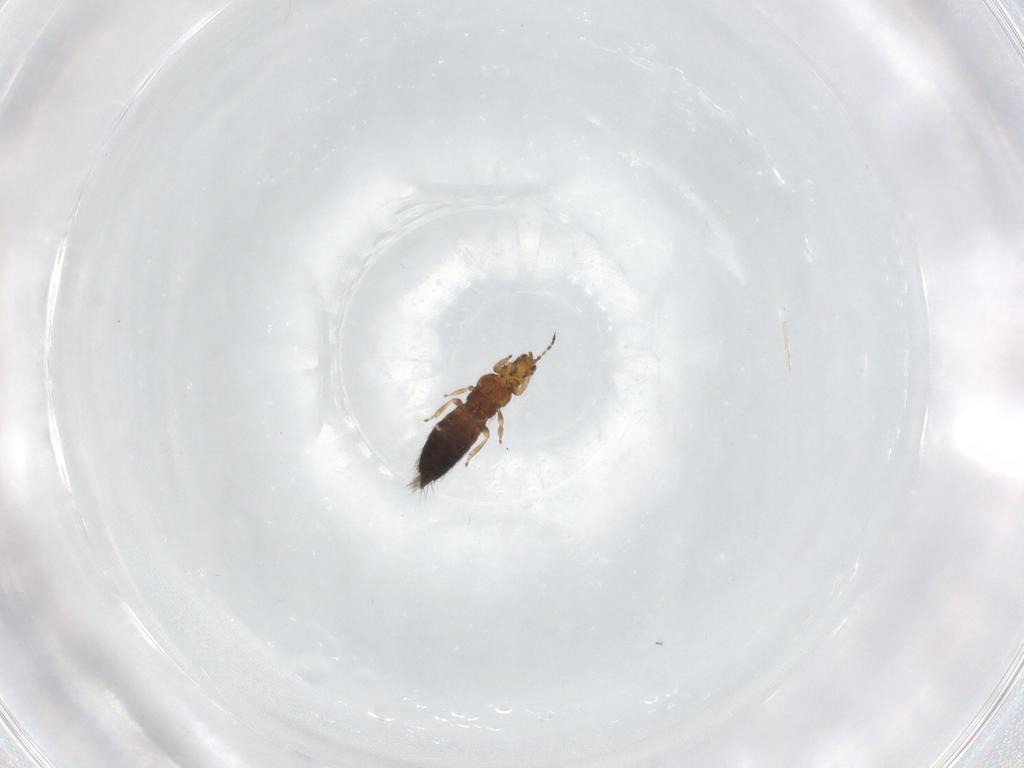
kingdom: Animalia
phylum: Arthropoda
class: Insecta
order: Thysanoptera
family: Thripidae
